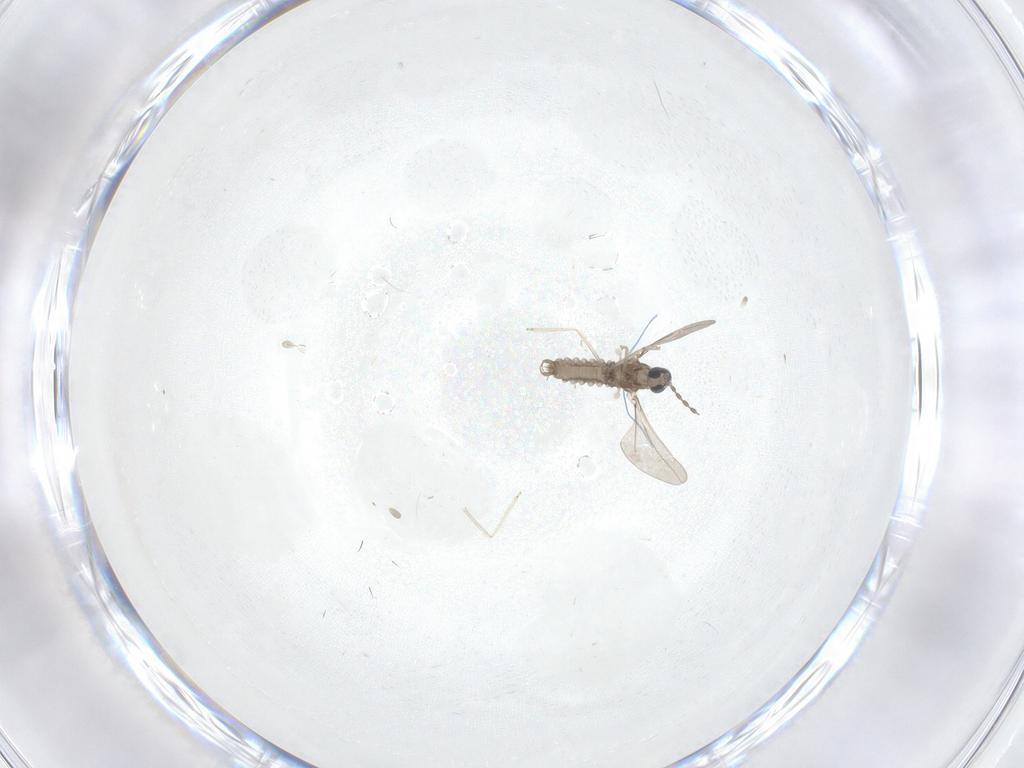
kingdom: Animalia
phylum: Arthropoda
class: Insecta
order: Diptera
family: Limoniidae
